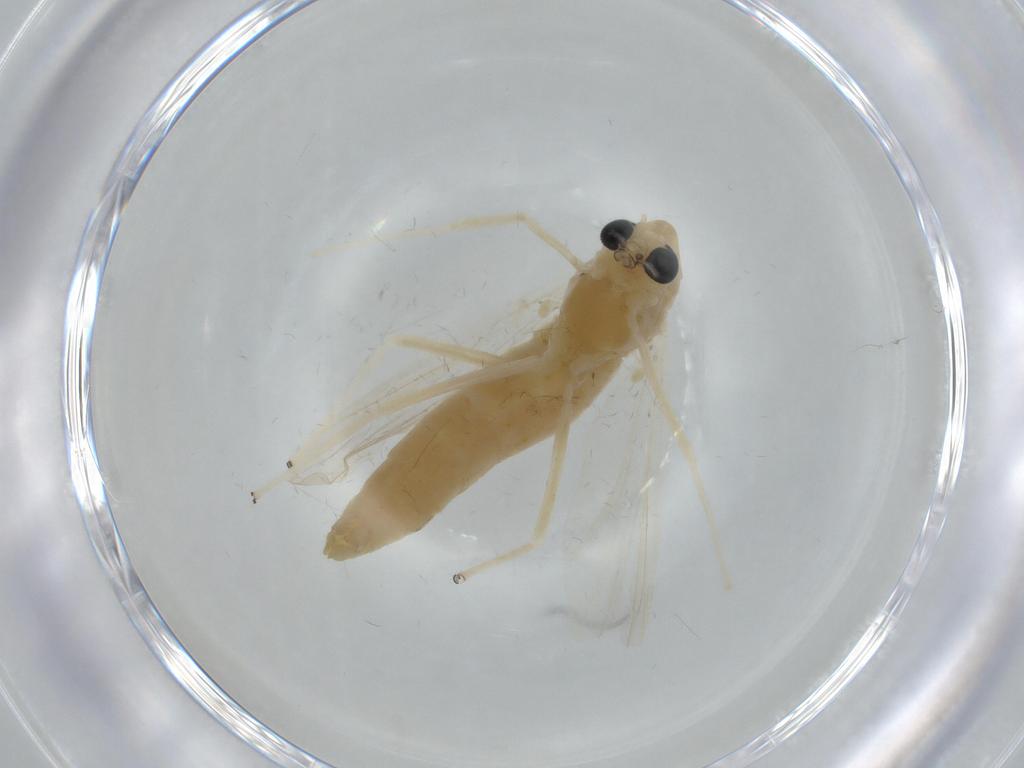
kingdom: Animalia
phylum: Arthropoda
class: Insecta
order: Diptera
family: Chironomidae
